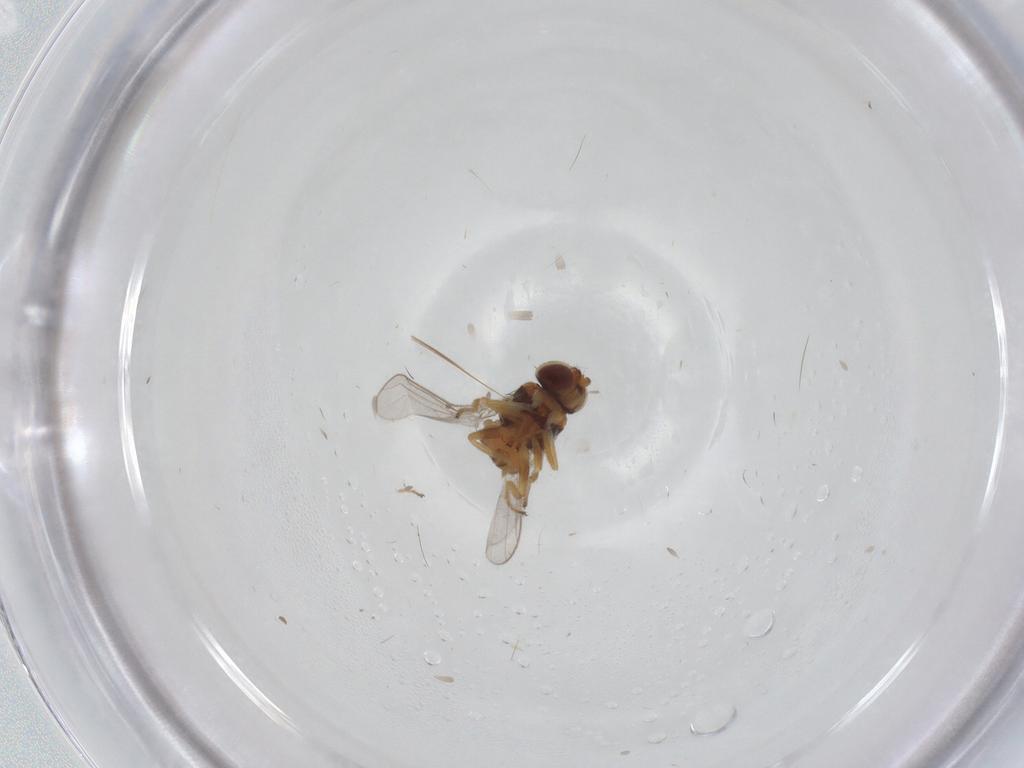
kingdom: Animalia
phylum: Arthropoda
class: Insecta
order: Diptera
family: Chloropidae
